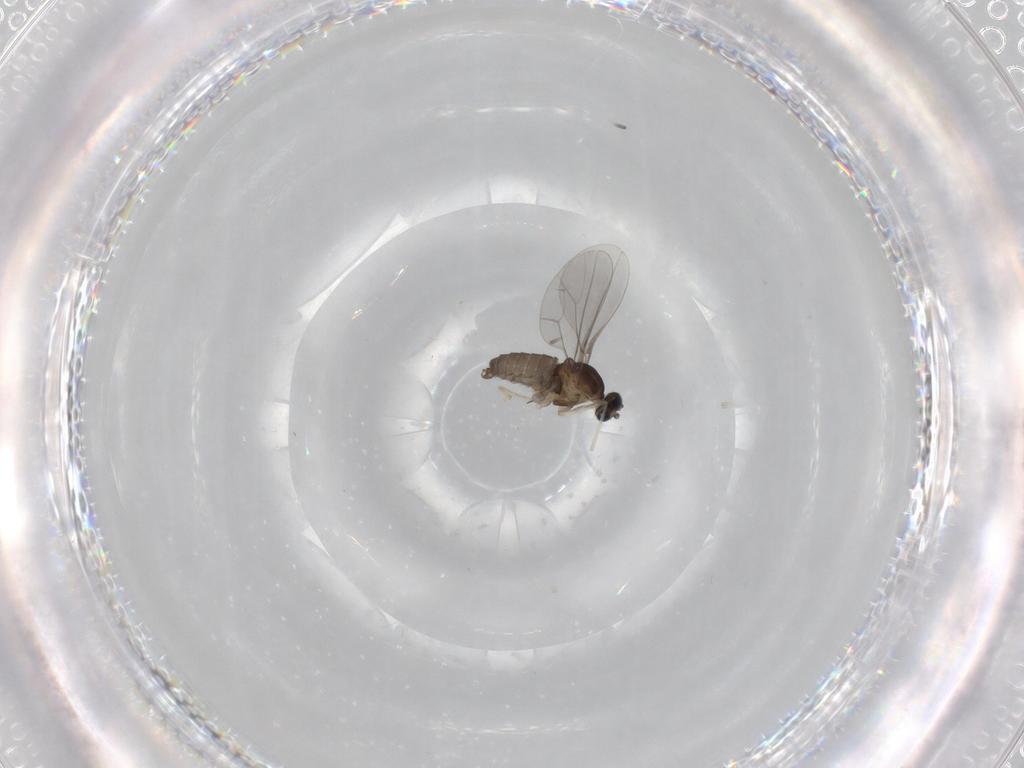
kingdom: Animalia
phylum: Arthropoda
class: Insecta
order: Diptera
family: Cecidomyiidae
